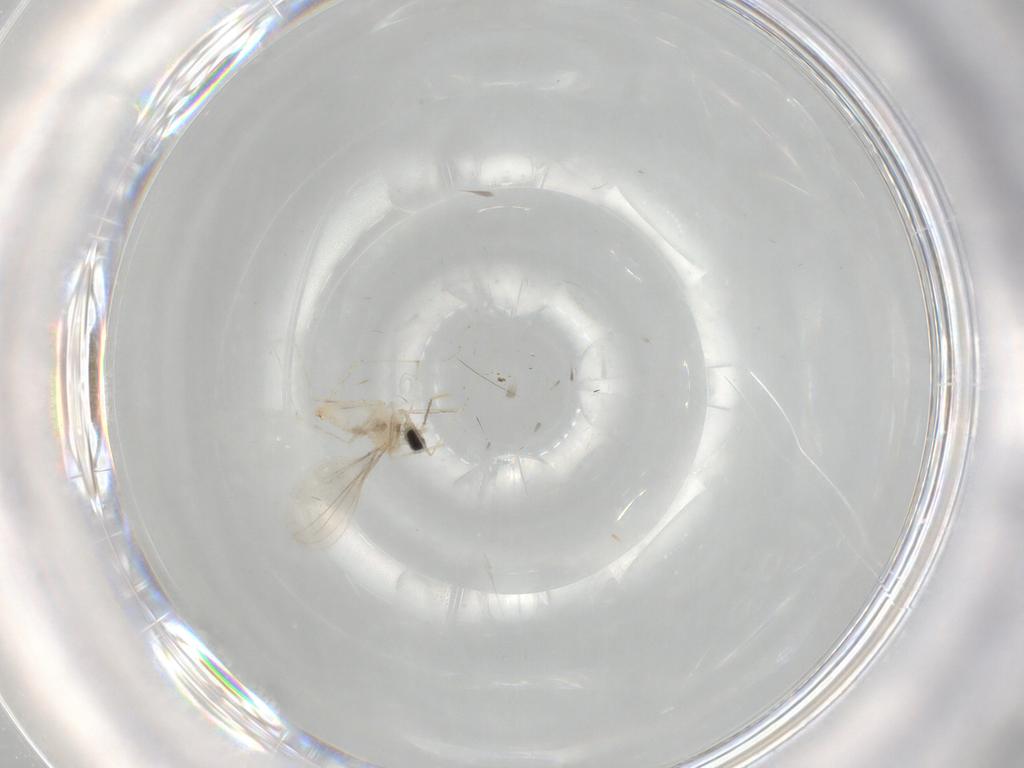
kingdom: Animalia
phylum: Arthropoda
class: Insecta
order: Diptera
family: Cecidomyiidae
